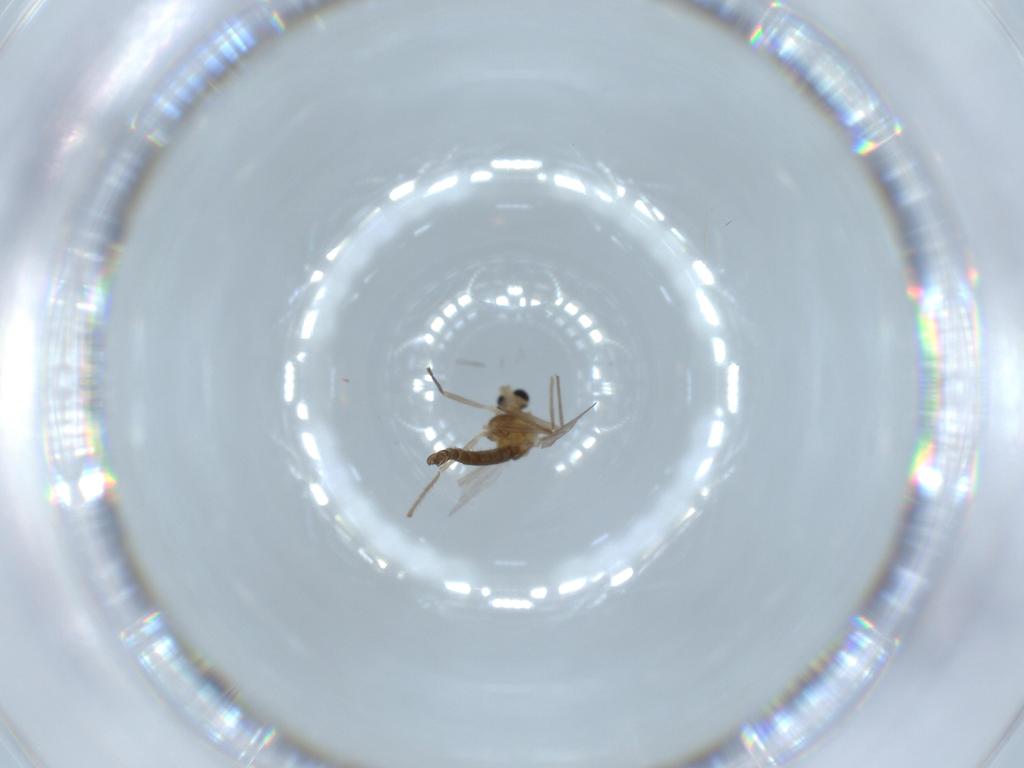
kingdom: Animalia
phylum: Arthropoda
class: Insecta
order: Diptera
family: Chironomidae
